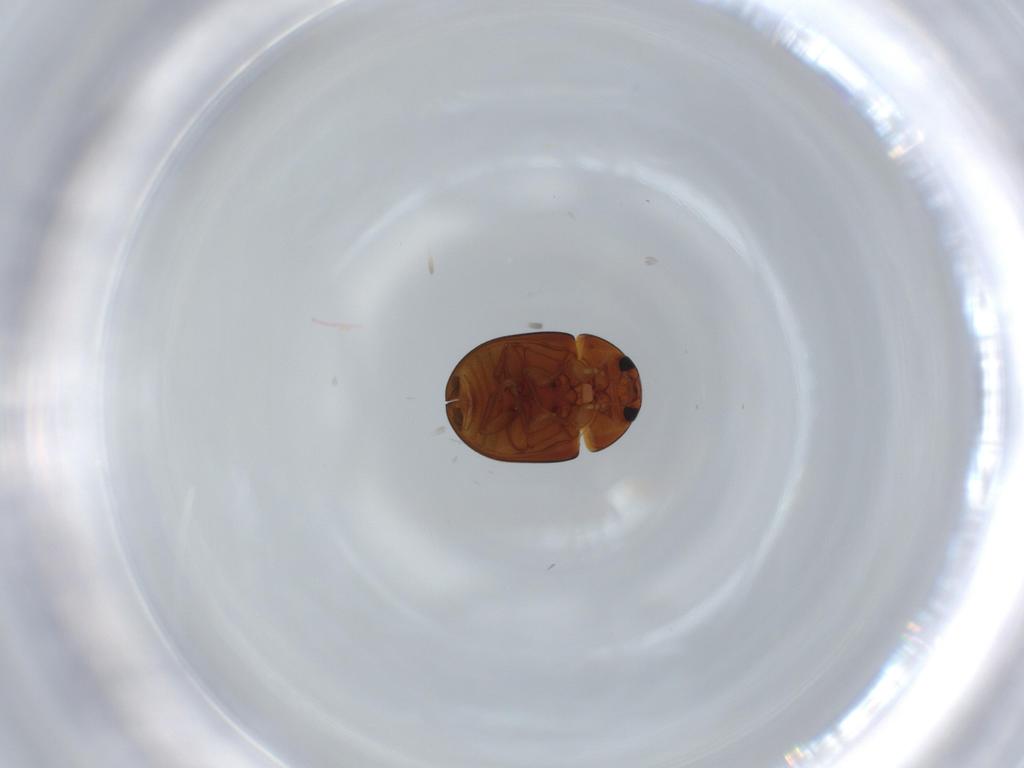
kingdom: Animalia
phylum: Arthropoda
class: Insecta
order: Coleoptera
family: Phalacridae
